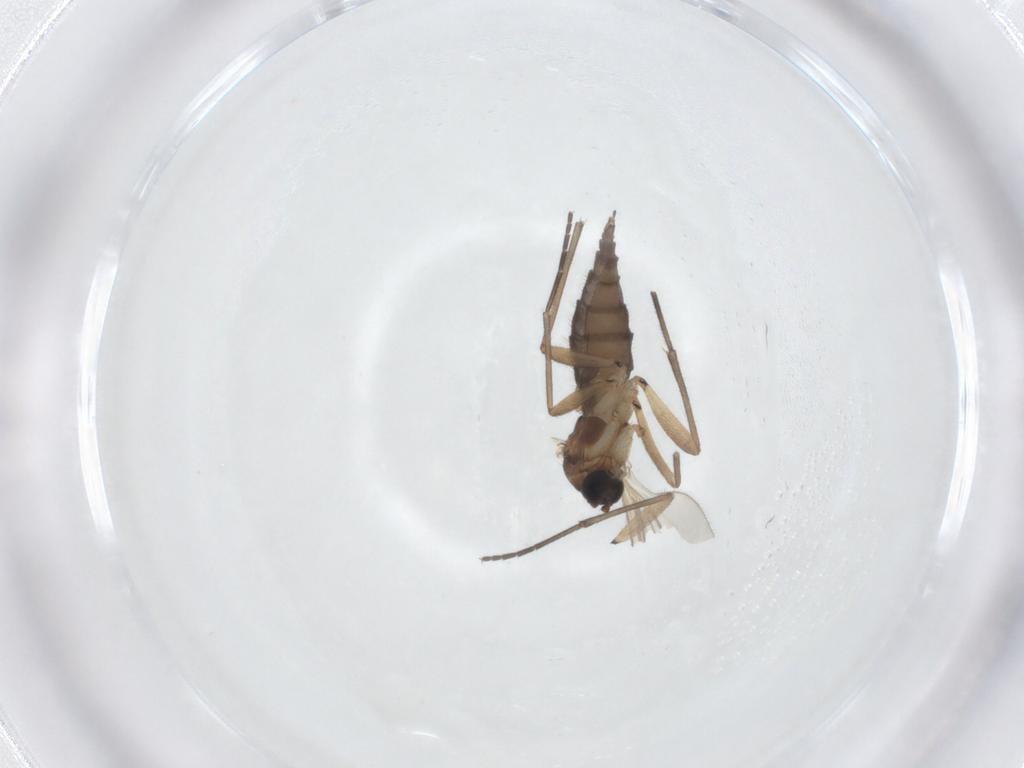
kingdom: Animalia
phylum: Arthropoda
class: Insecta
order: Diptera
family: Sciaridae
